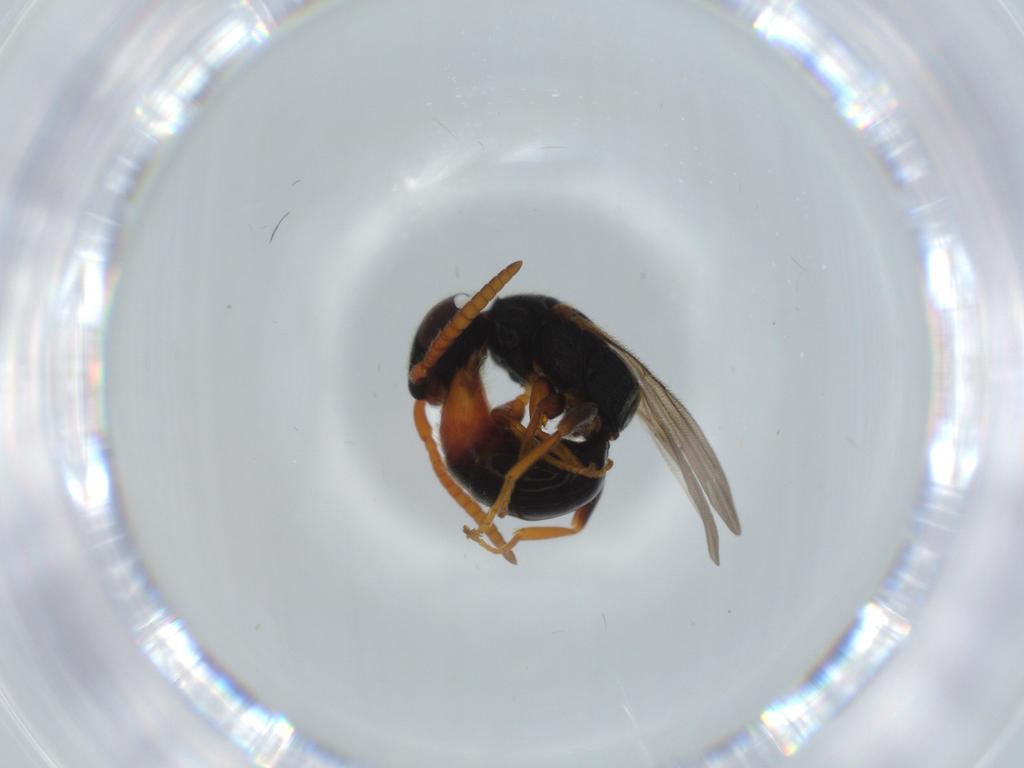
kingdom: Animalia
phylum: Arthropoda
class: Insecta
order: Hymenoptera
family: Bethylidae
